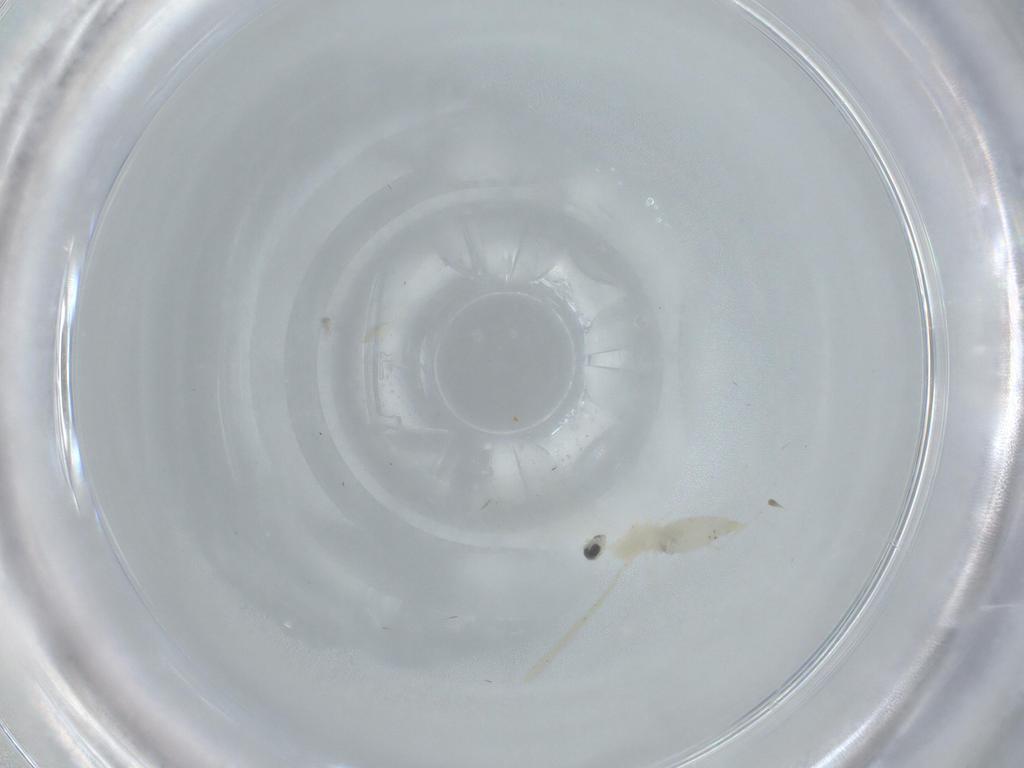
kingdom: Animalia
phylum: Arthropoda
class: Insecta
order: Diptera
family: Cecidomyiidae
